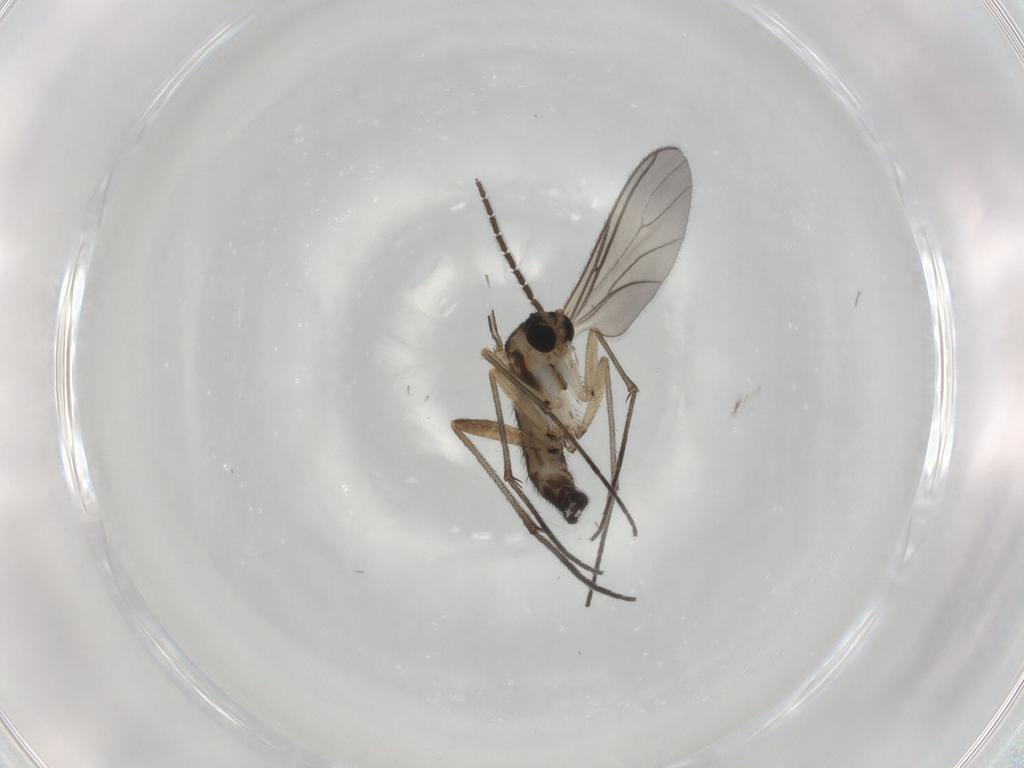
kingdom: Animalia
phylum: Arthropoda
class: Insecta
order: Diptera
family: Sciaridae
